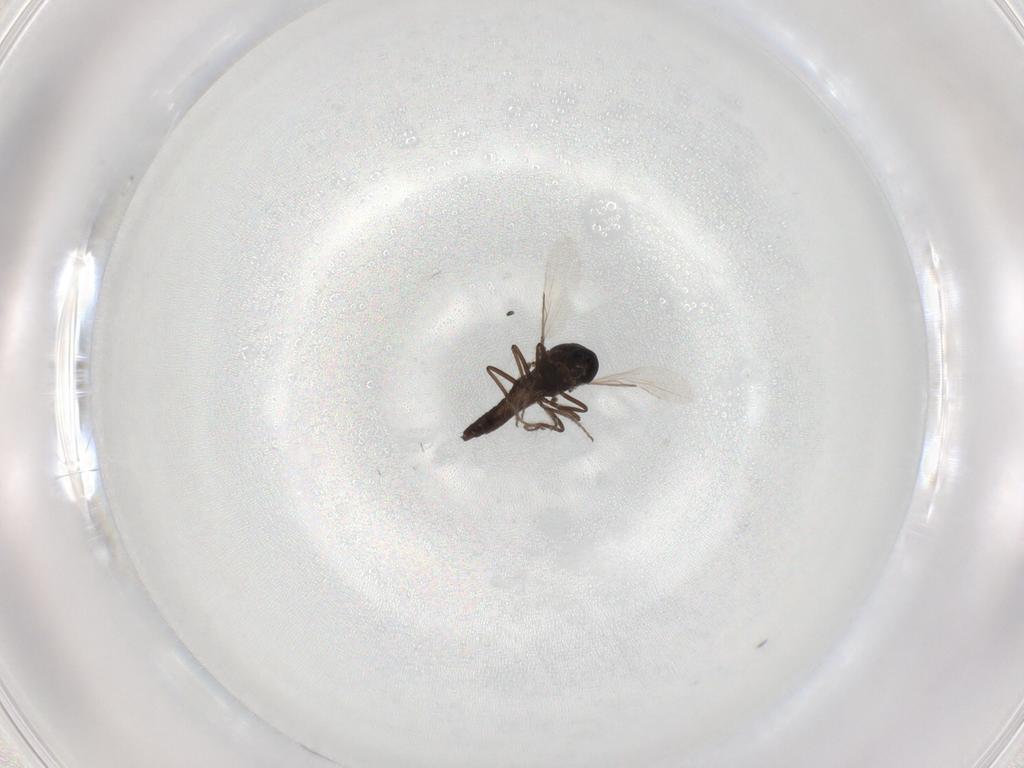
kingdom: Animalia
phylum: Arthropoda
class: Insecta
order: Diptera
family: Ceratopogonidae
